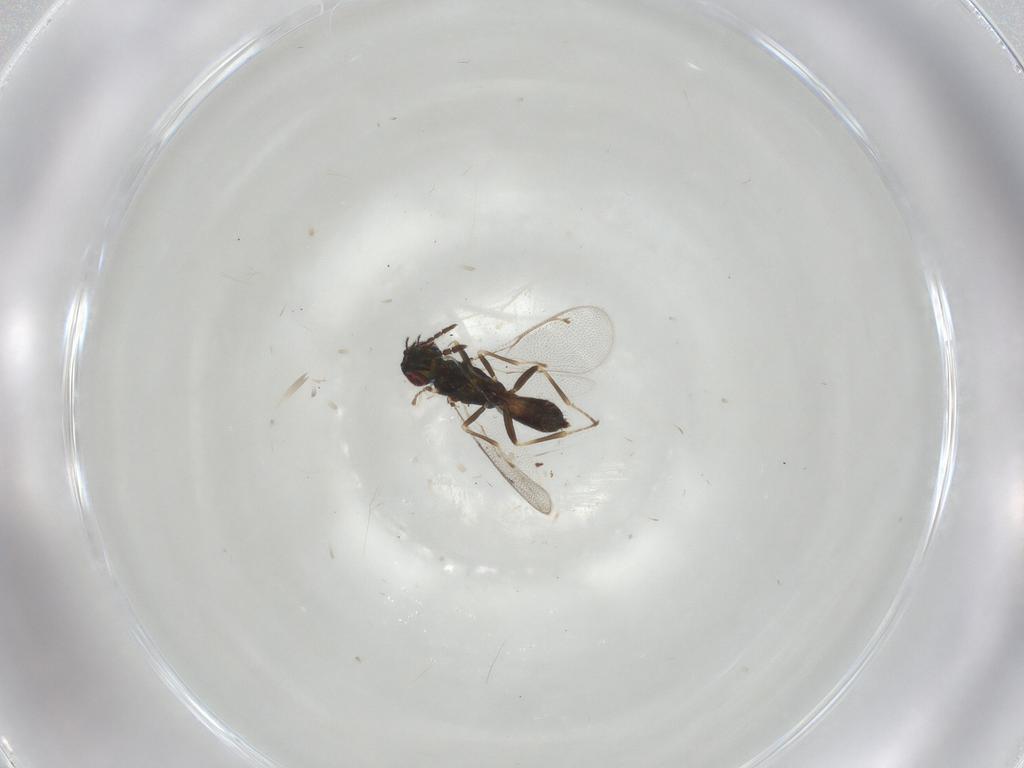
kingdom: Animalia
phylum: Arthropoda
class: Insecta
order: Hymenoptera
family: Eulophidae
